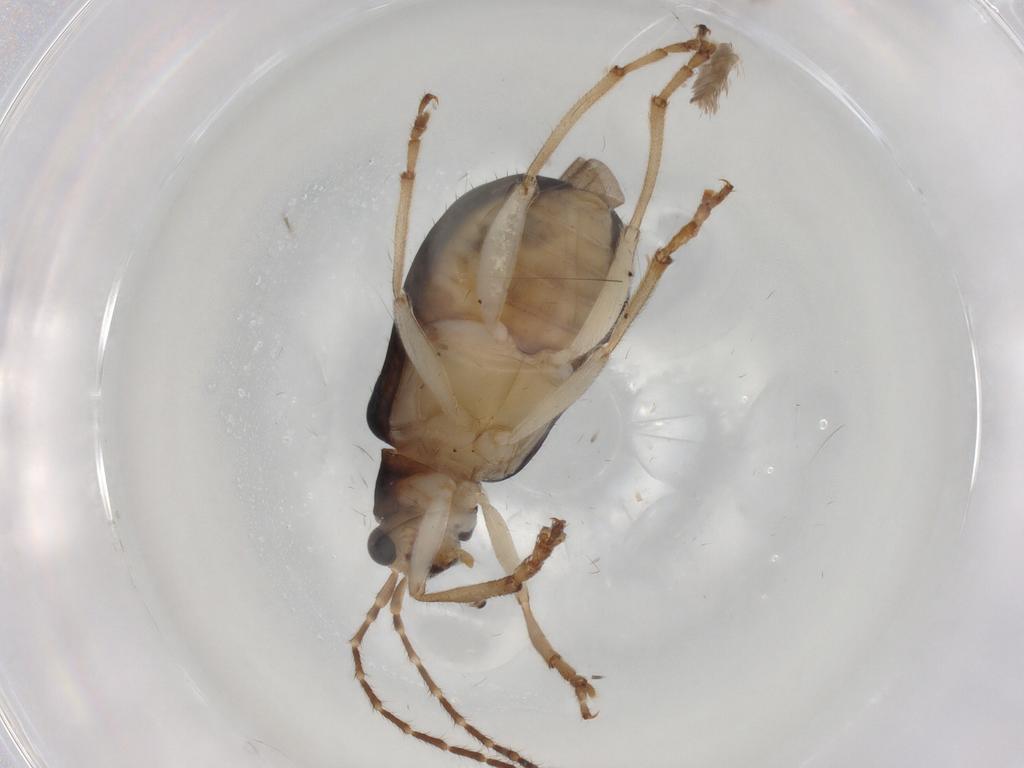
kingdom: Animalia
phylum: Arthropoda
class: Insecta
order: Coleoptera
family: Chrysomelidae
